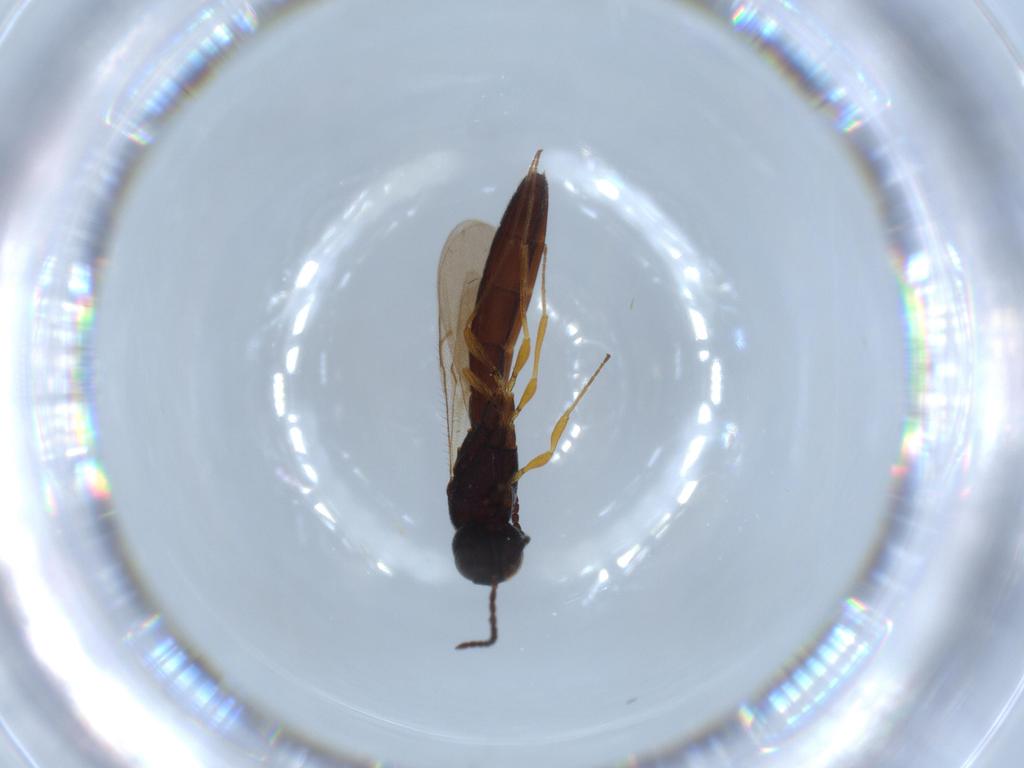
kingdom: Animalia
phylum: Arthropoda
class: Insecta
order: Hymenoptera
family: Scelionidae
